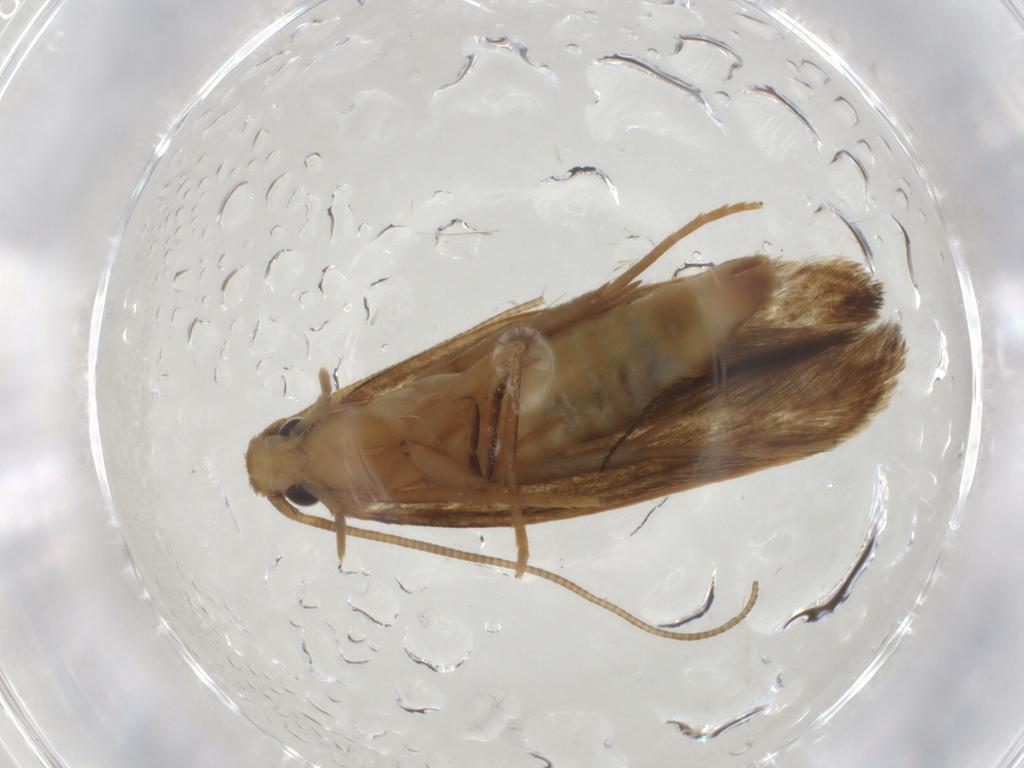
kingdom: Animalia
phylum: Arthropoda
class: Insecta
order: Lepidoptera
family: Tineidae
